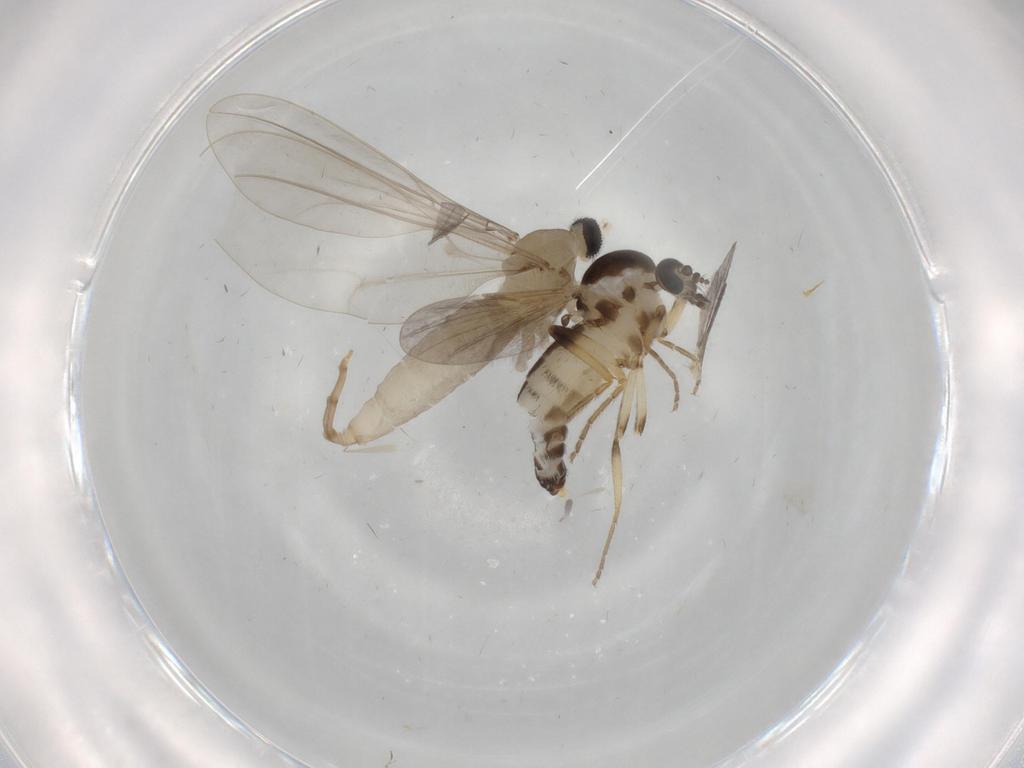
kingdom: Animalia
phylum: Arthropoda
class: Insecta
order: Diptera
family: Cecidomyiidae
